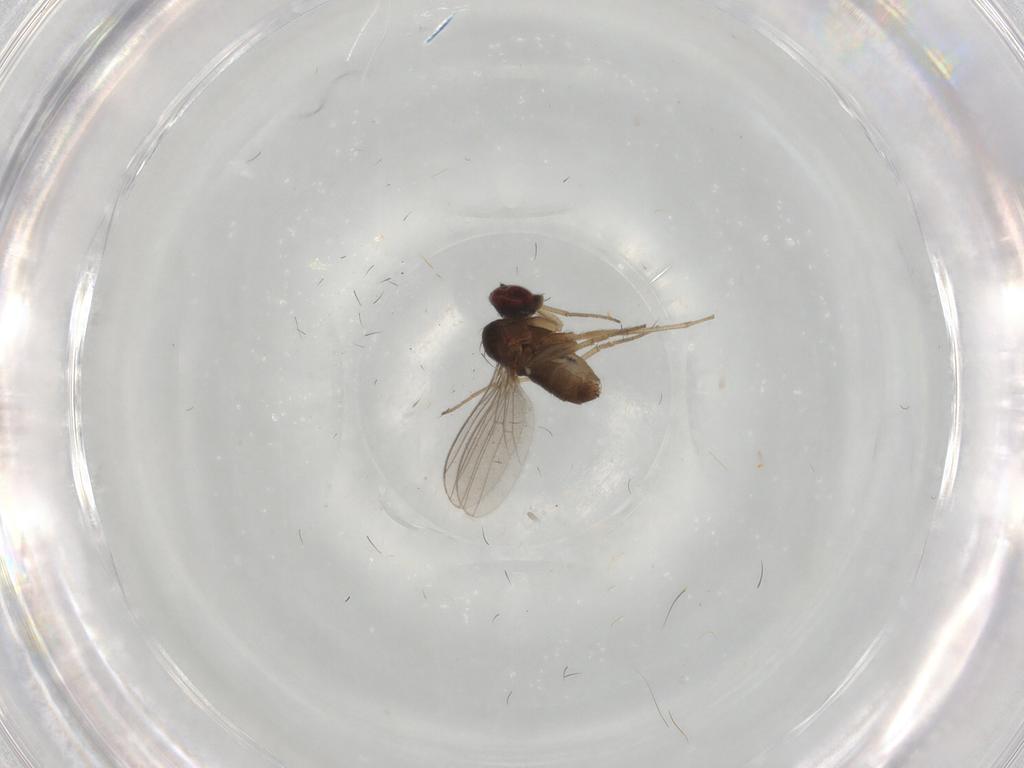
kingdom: Animalia
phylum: Arthropoda
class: Insecta
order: Diptera
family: Dolichopodidae
